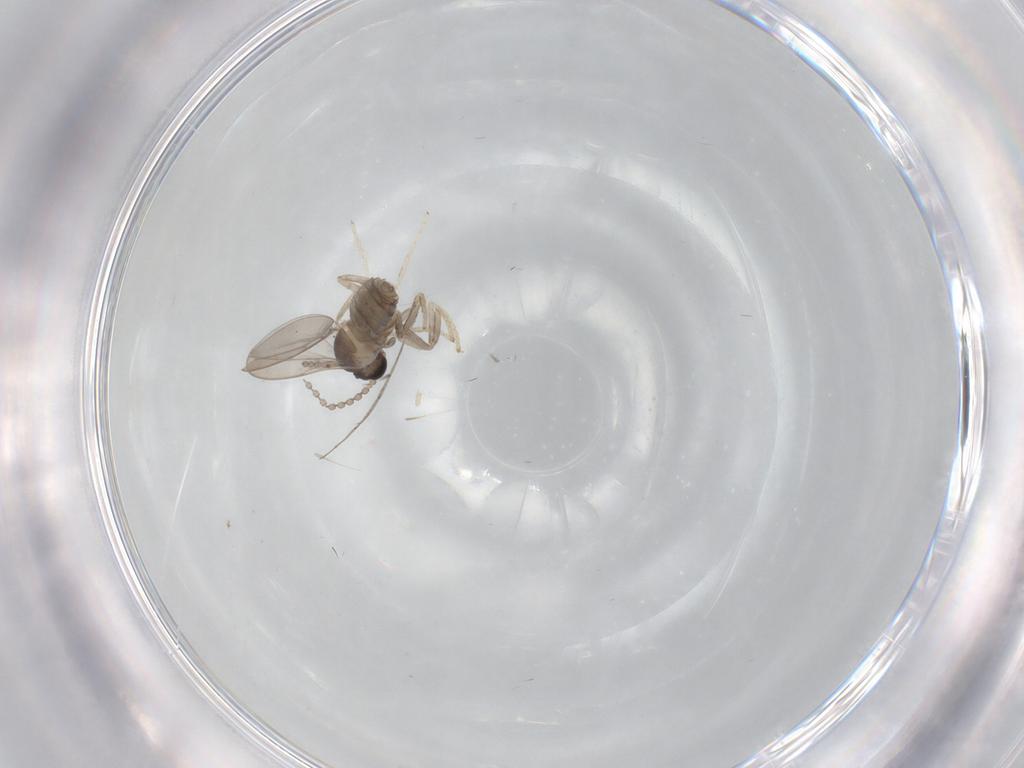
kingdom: Animalia
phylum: Arthropoda
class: Insecta
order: Diptera
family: Cecidomyiidae
